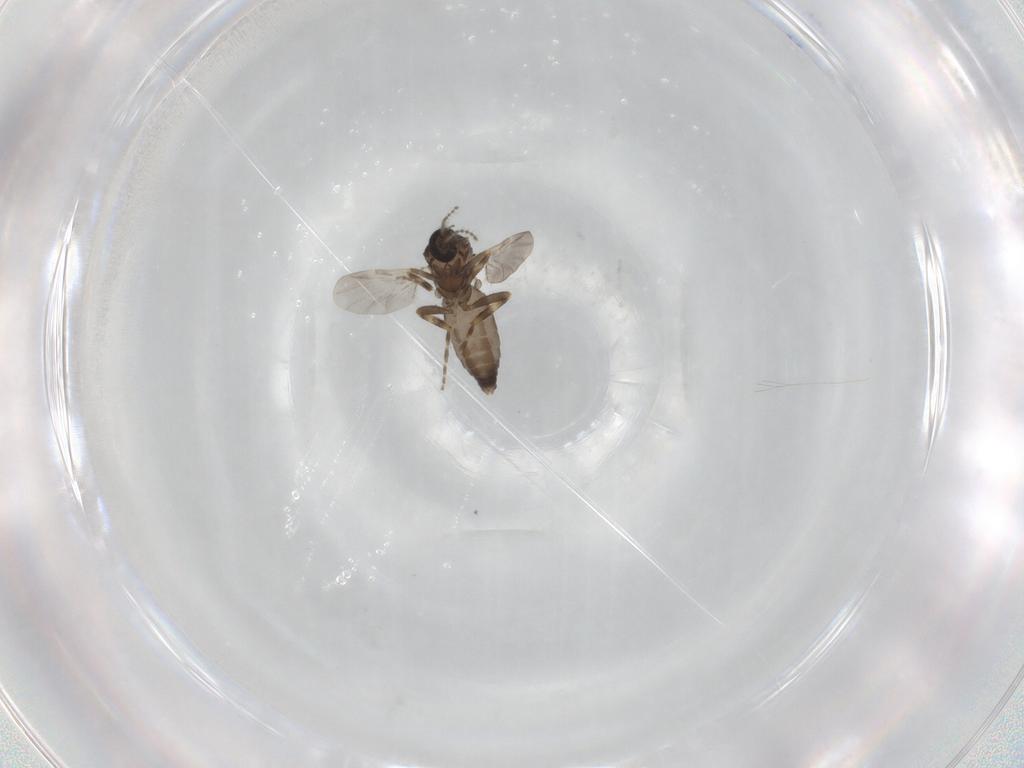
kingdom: Animalia
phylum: Arthropoda
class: Insecta
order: Diptera
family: Ceratopogonidae
